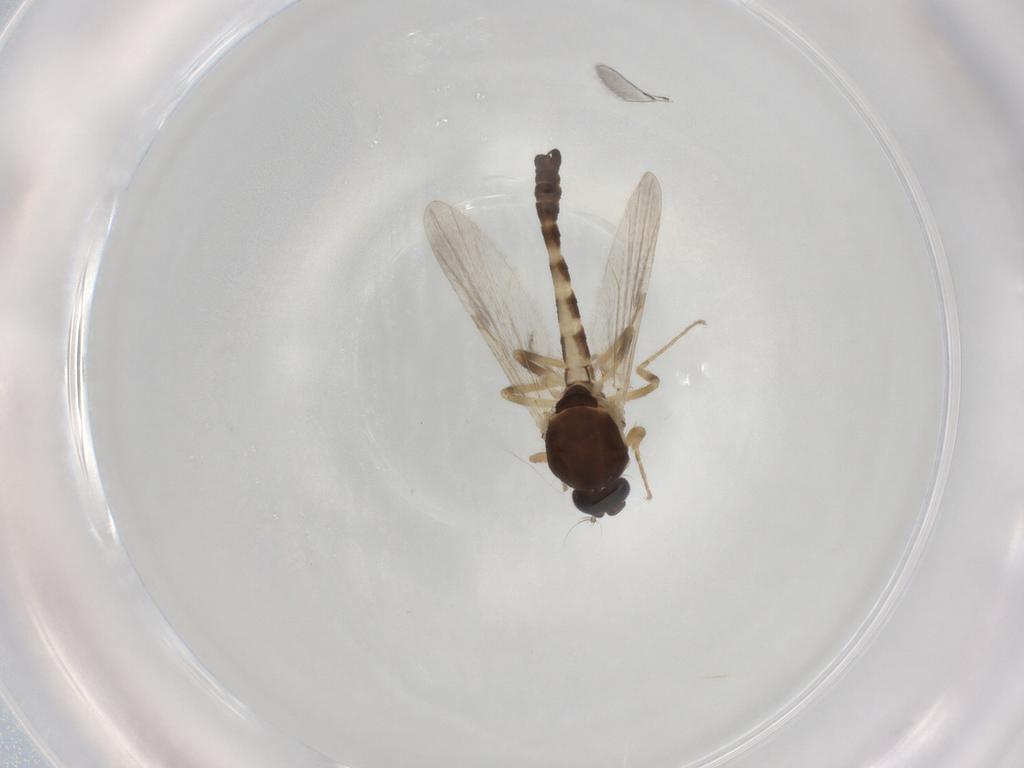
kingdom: Animalia
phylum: Arthropoda
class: Insecta
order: Diptera
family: Ceratopogonidae
